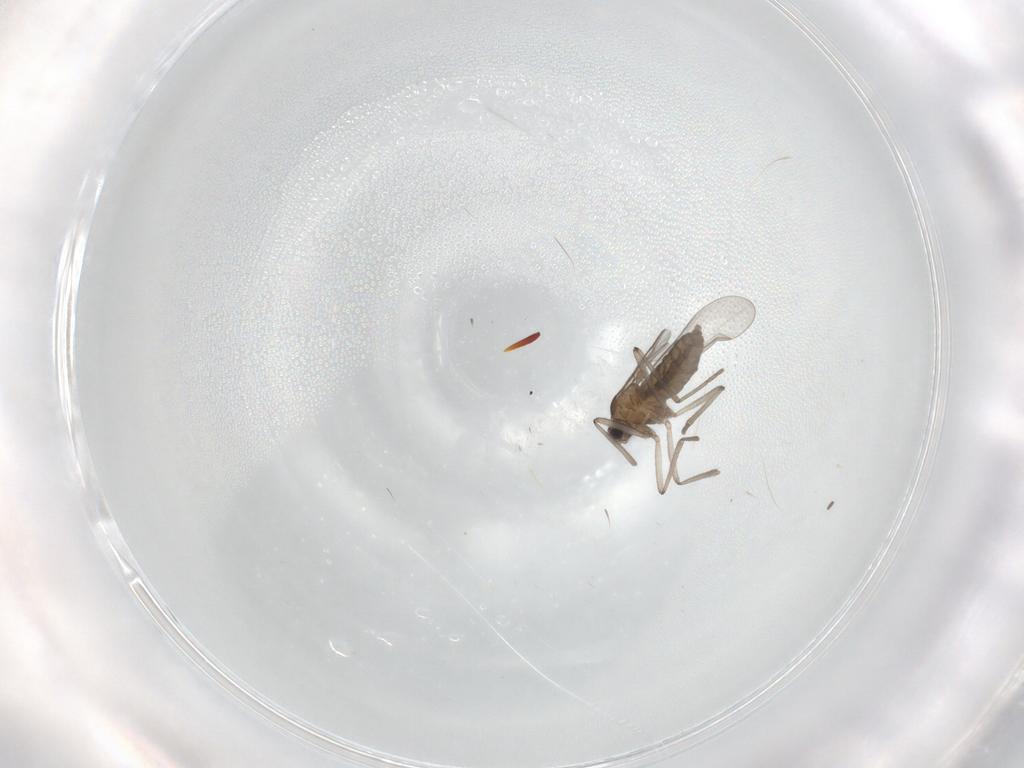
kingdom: Animalia
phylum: Arthropoda
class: Insecta
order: Diptera
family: Cecidomyiidae
